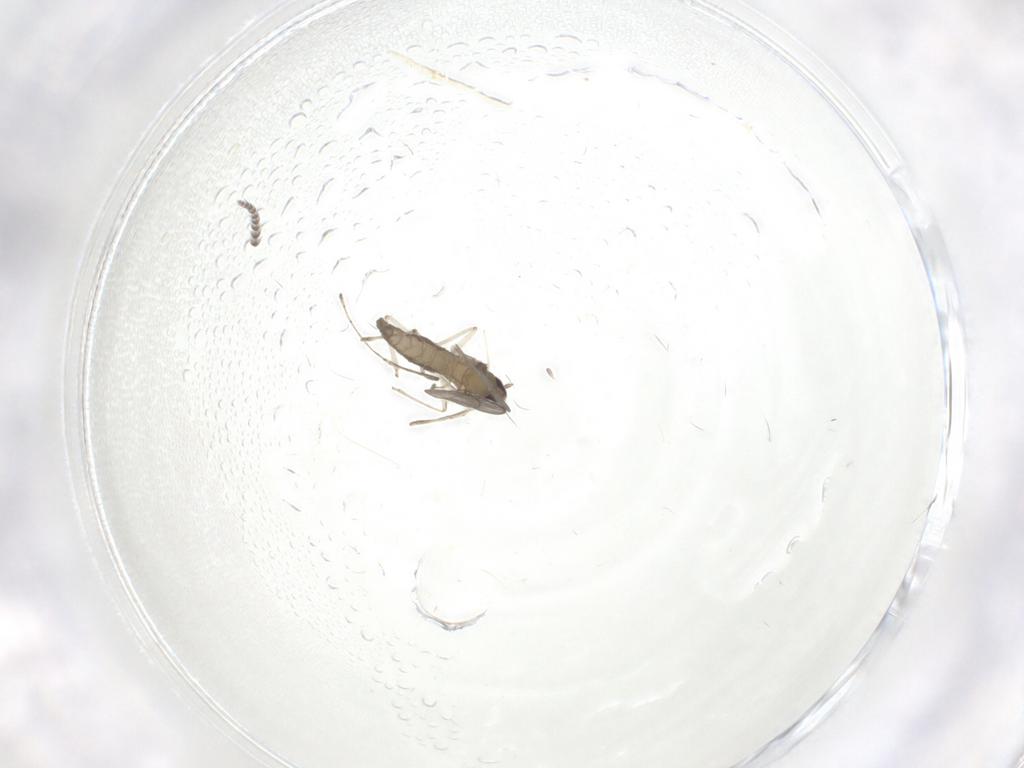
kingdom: Animalia
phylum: Arthropoda
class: Insecta
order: Diptera
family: Cecidomyiidae
